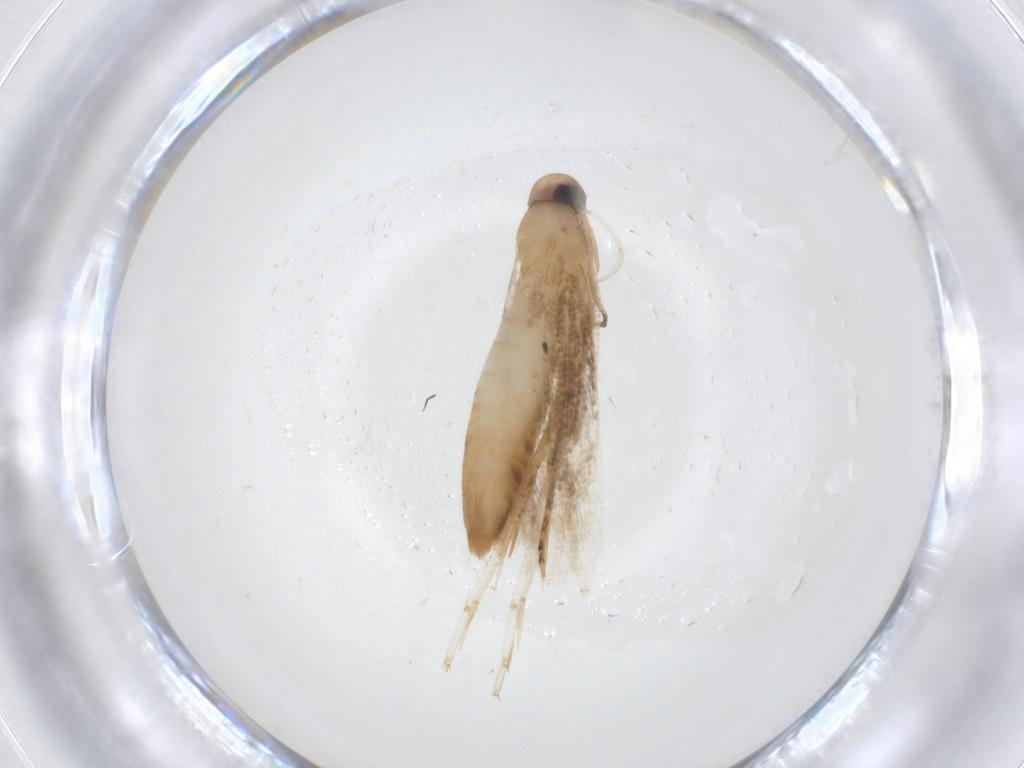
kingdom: Animalia
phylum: Arthropoda
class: Insecta
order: Lepidoptera
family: Cosmopterigidae
